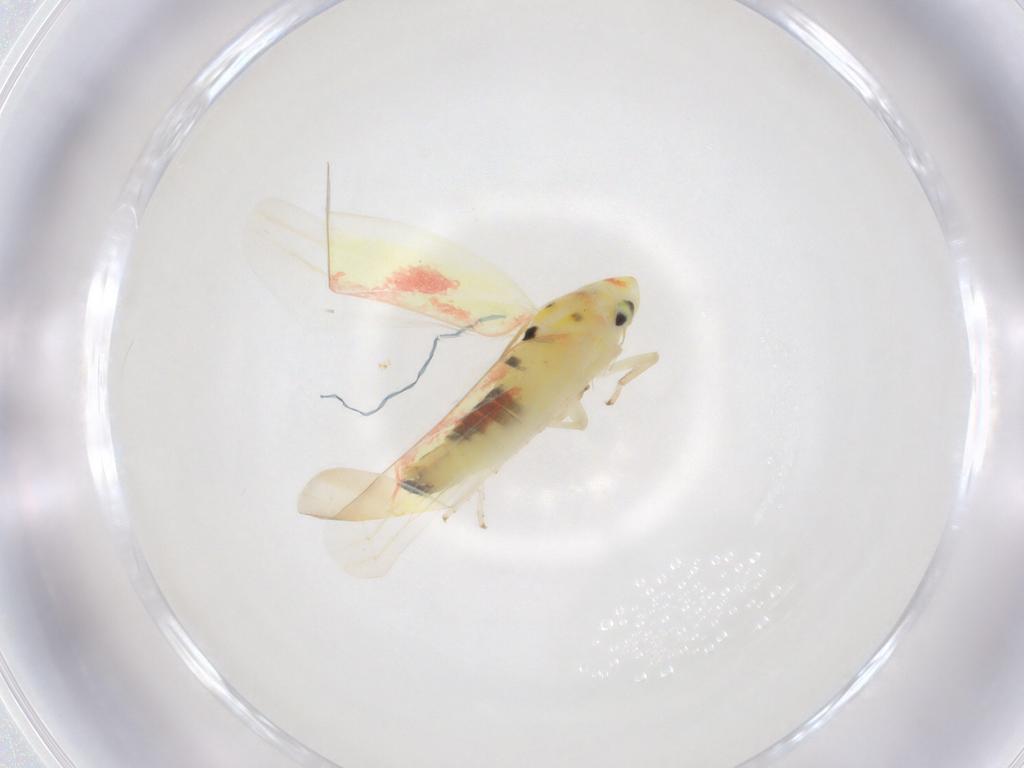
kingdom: Animalia
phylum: Arthropoda
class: Insecta
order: Hemiptera
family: Cicadellidae
